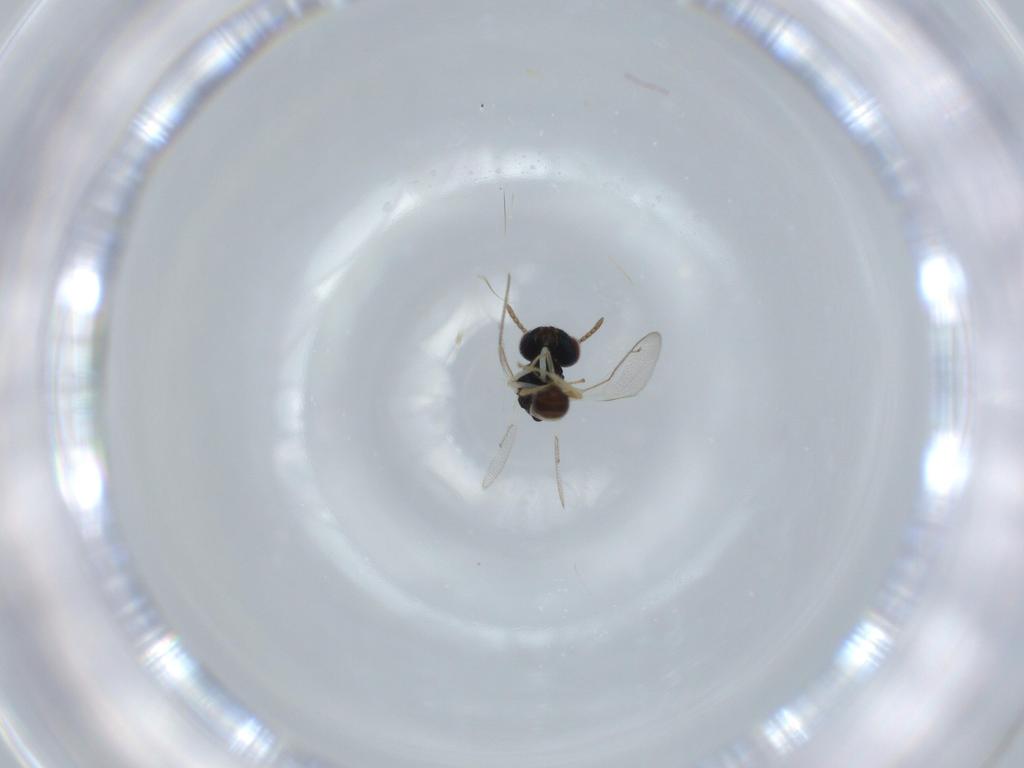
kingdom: Animalia
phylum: Arthropoda
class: Insecta
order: Hymenoptera
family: Pteromalidae
